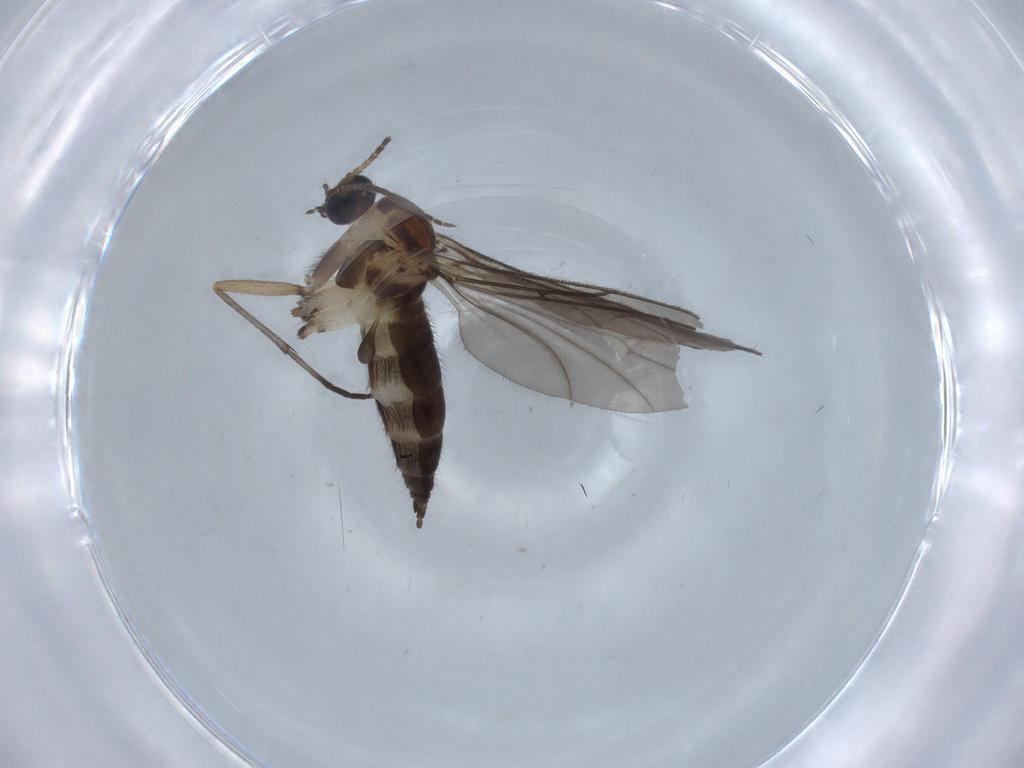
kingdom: Animalia
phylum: Arthropoda
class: Insecta
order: Diptera
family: Sciaridae
